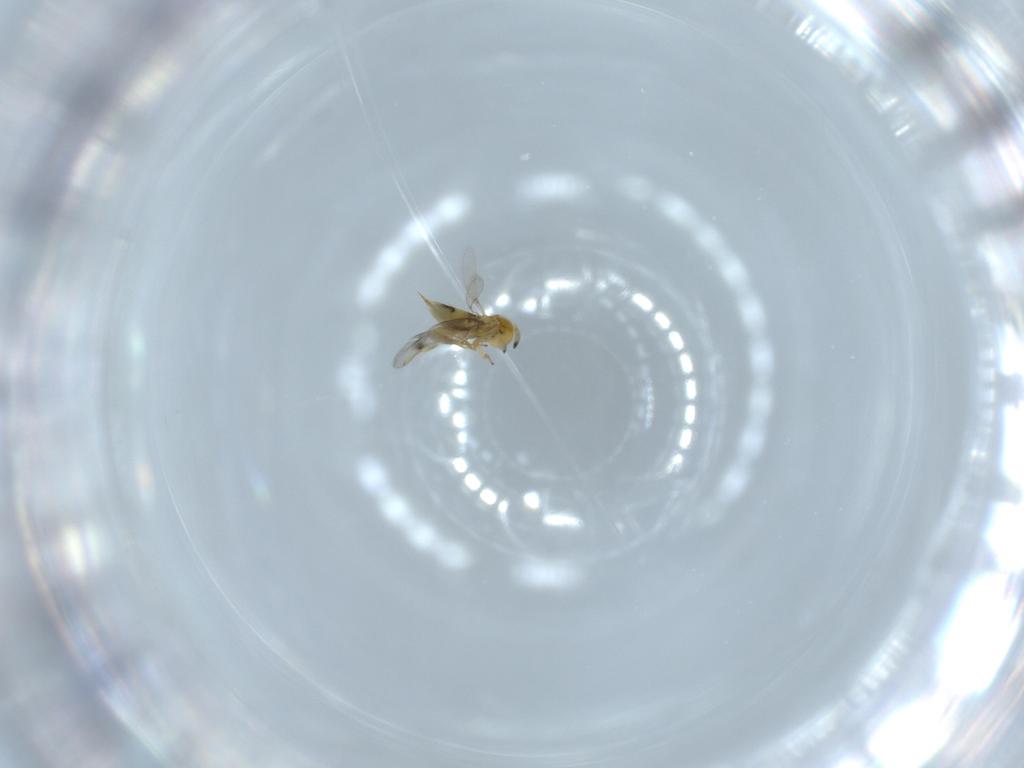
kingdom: Animalia
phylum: Arthropoda
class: Insecta
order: Hymenoptera
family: Aphelinidae
